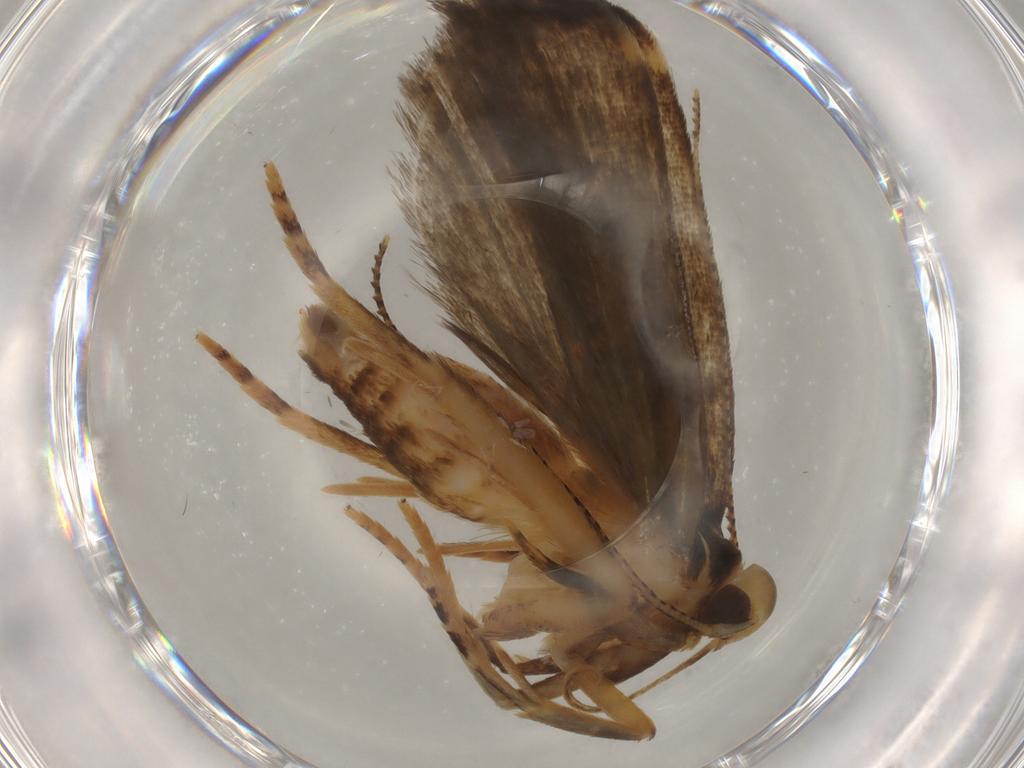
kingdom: Animalia
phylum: Arthropoda
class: Insecta
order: Lepidoptera
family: Gelechiidae
